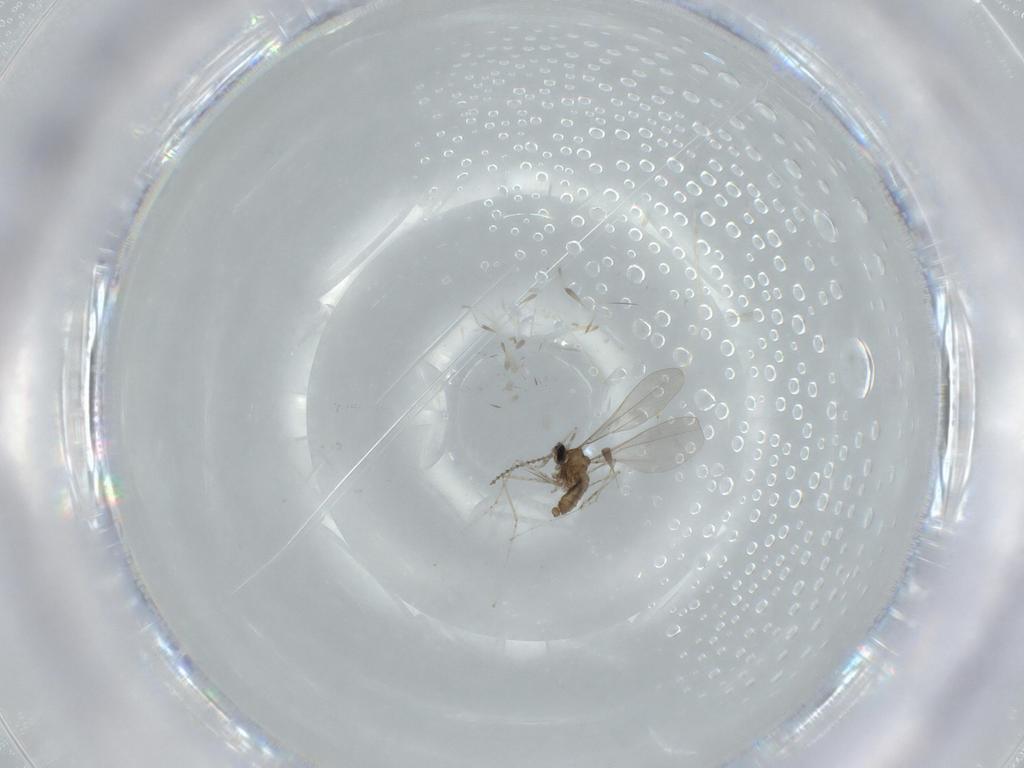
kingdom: Animalia
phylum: Arthropoda
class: Insecta
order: Diptera
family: Cecidomyiidae
